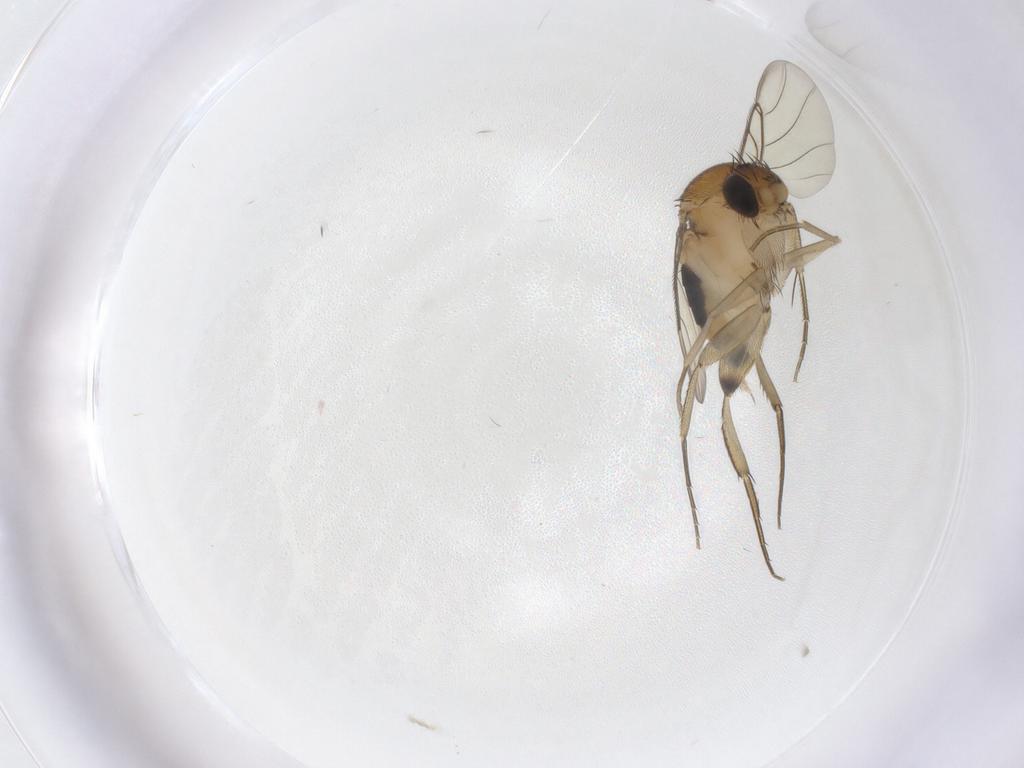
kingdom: Animalia
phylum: Arthropoda
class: Insecta
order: Diptera
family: Phoridae
